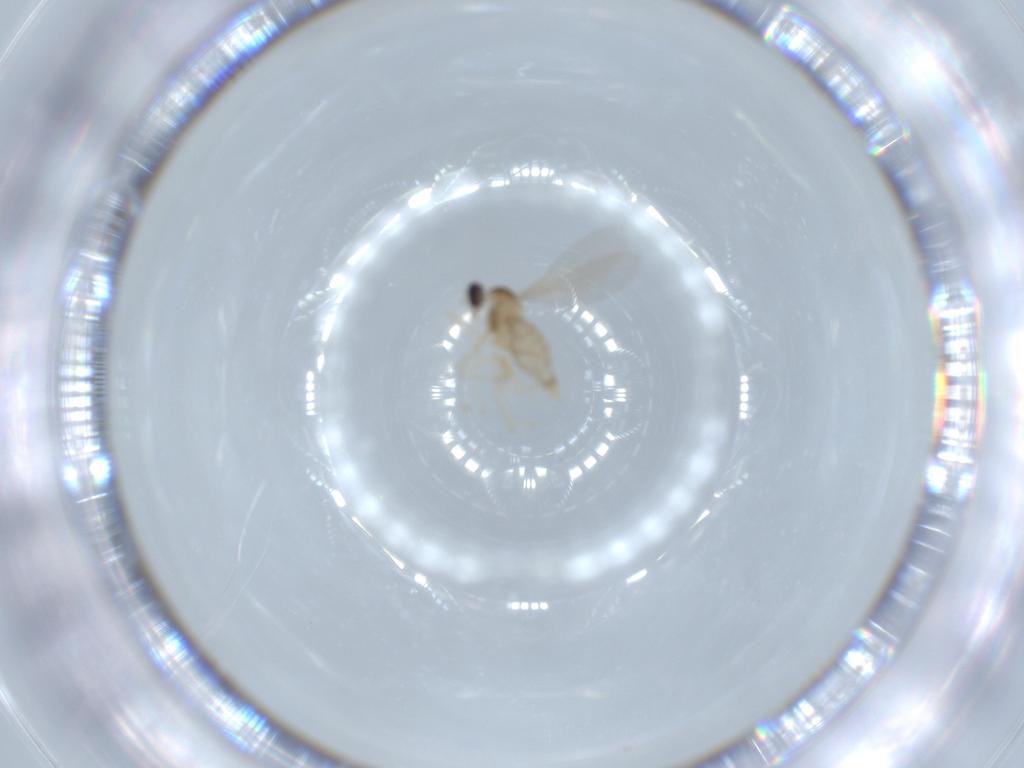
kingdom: Animalia
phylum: Arthropoda
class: Insecta
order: Diptera
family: Cecidomyiidae
